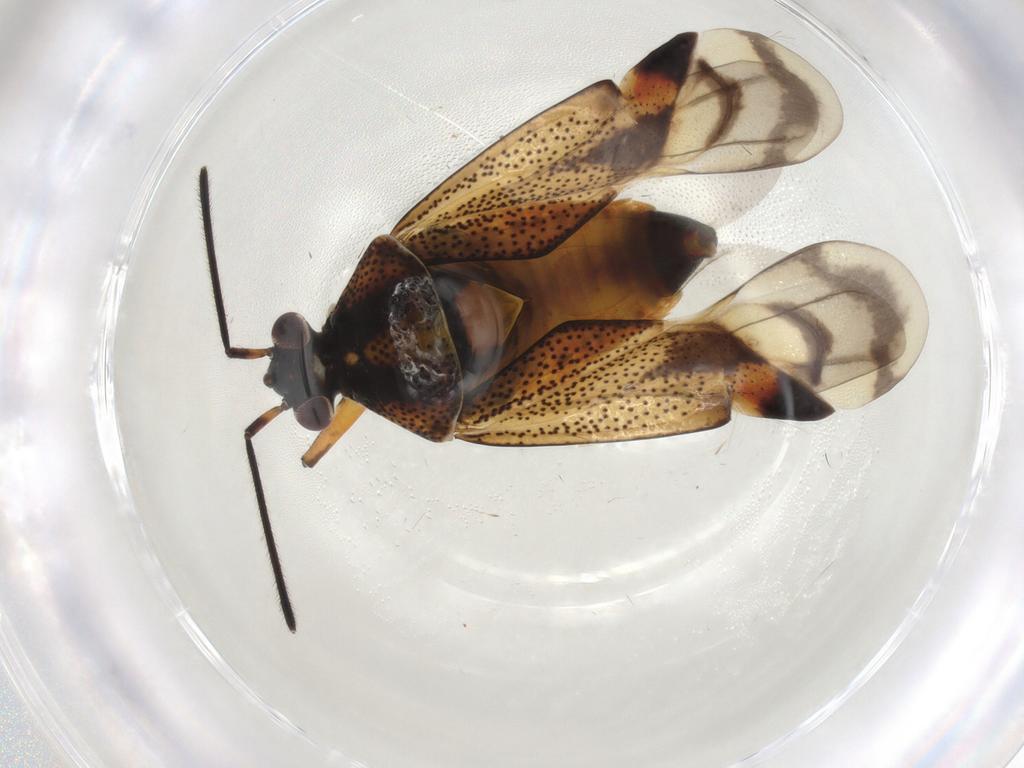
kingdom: Animalia
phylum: Arthropoda
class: Insecta
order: Hemiptera
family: Miridae
